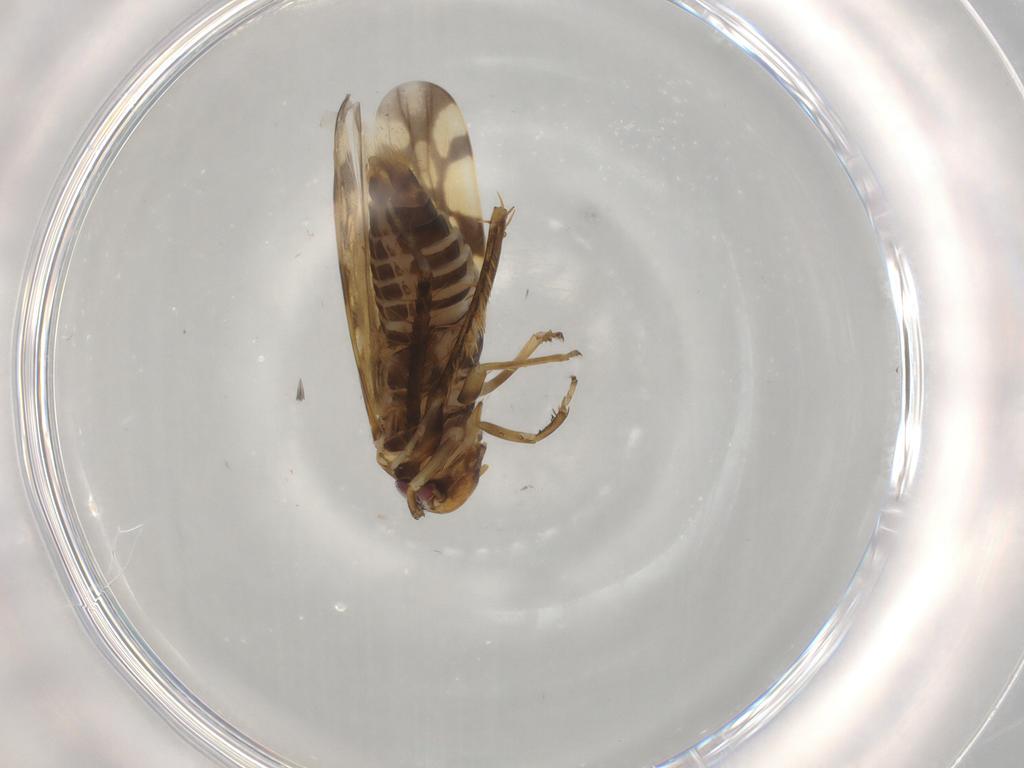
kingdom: Animalia
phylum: Arthropoda
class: Insecta
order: Hemiptera
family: Cicadellidae
